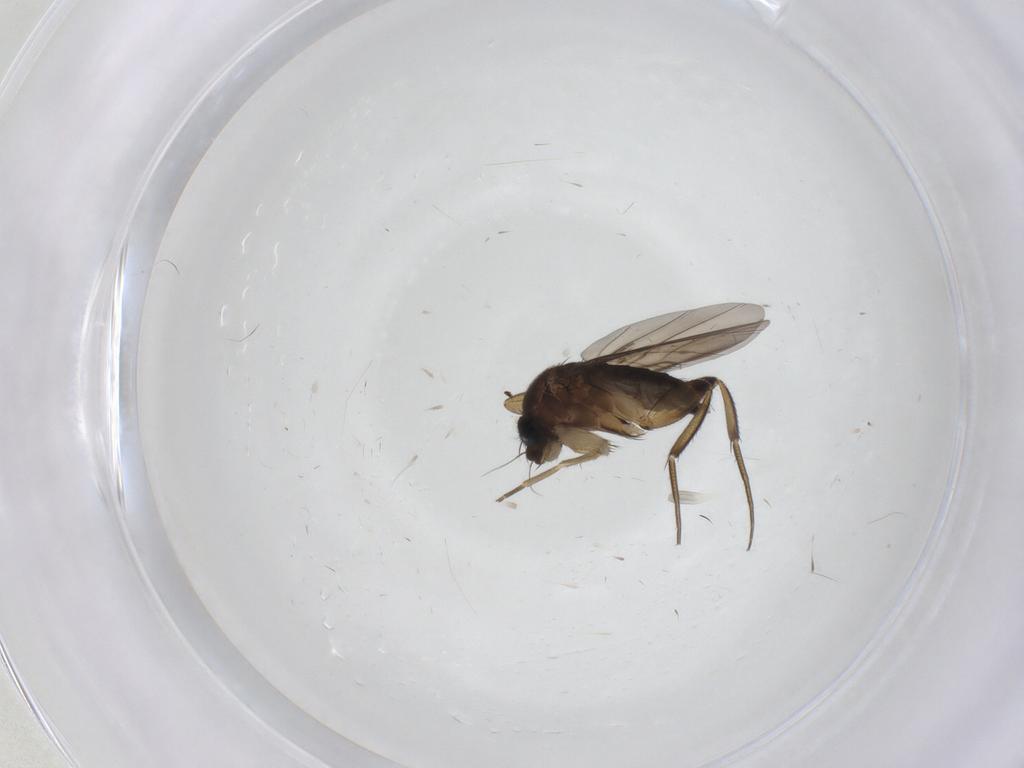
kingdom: Animalia
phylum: Arthropoda
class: Insecta
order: Diptera
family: Phoridae
